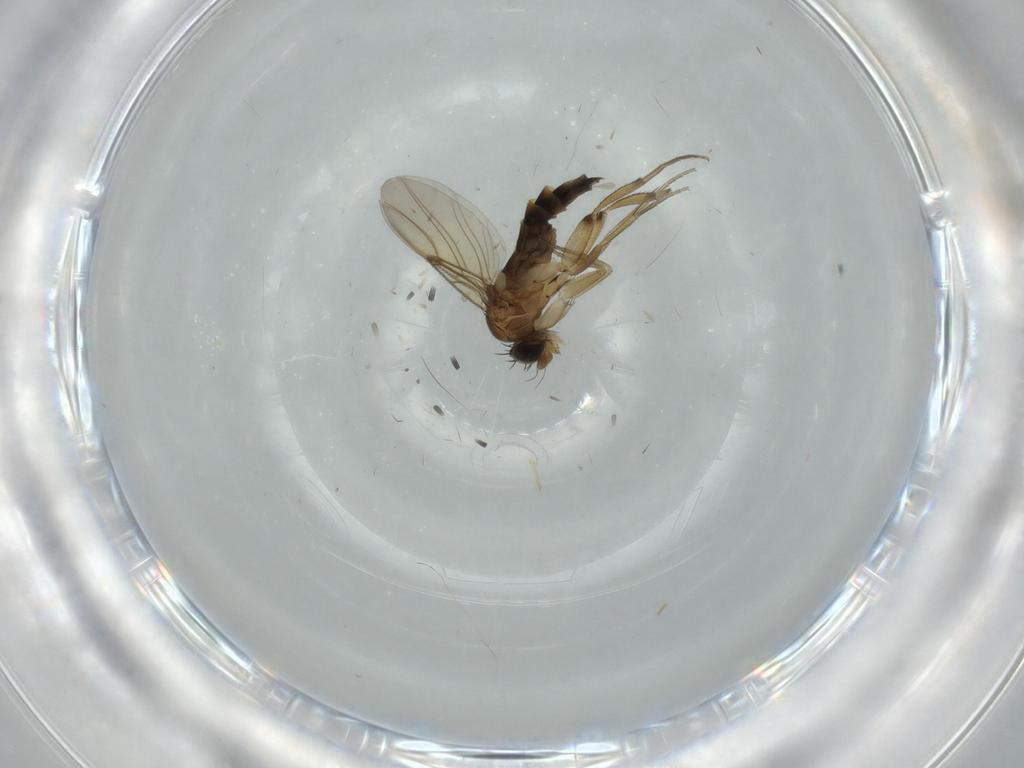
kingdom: Animalia
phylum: Arthropoda
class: Insecta
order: Diptera
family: Phoridae
